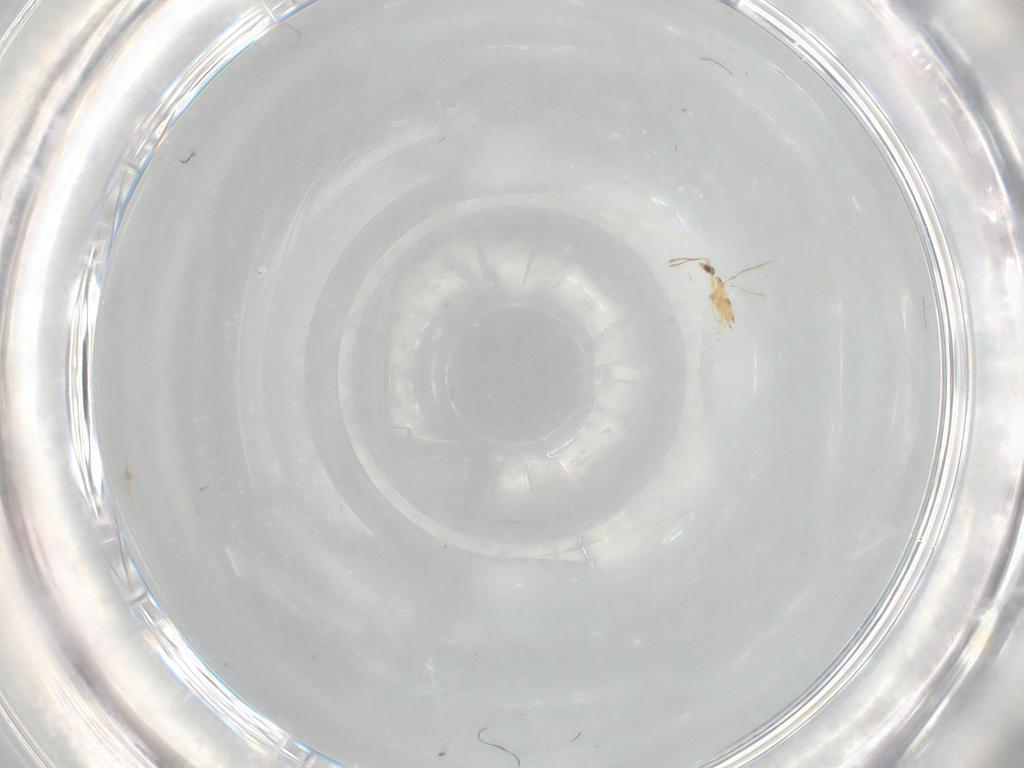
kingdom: Animalia
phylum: Arthropoda
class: Insecta
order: Hymenoptera
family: Mymaridae
